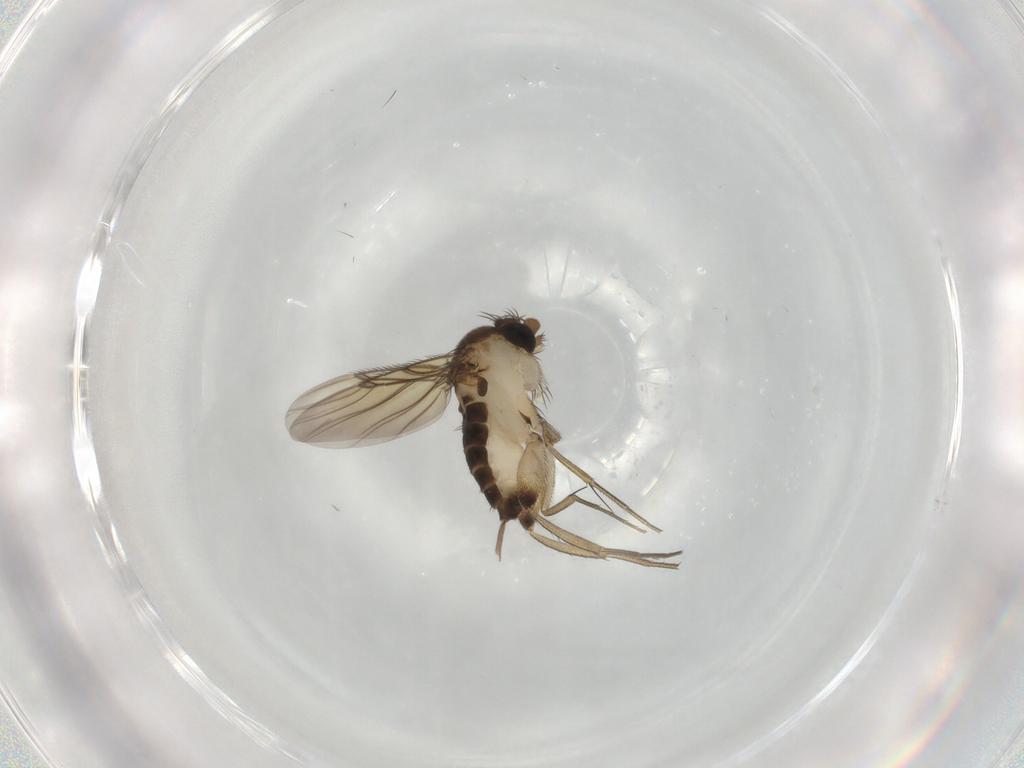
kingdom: Animalia
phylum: Arthropoda
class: Insecta
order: Diptera
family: Phoridae
